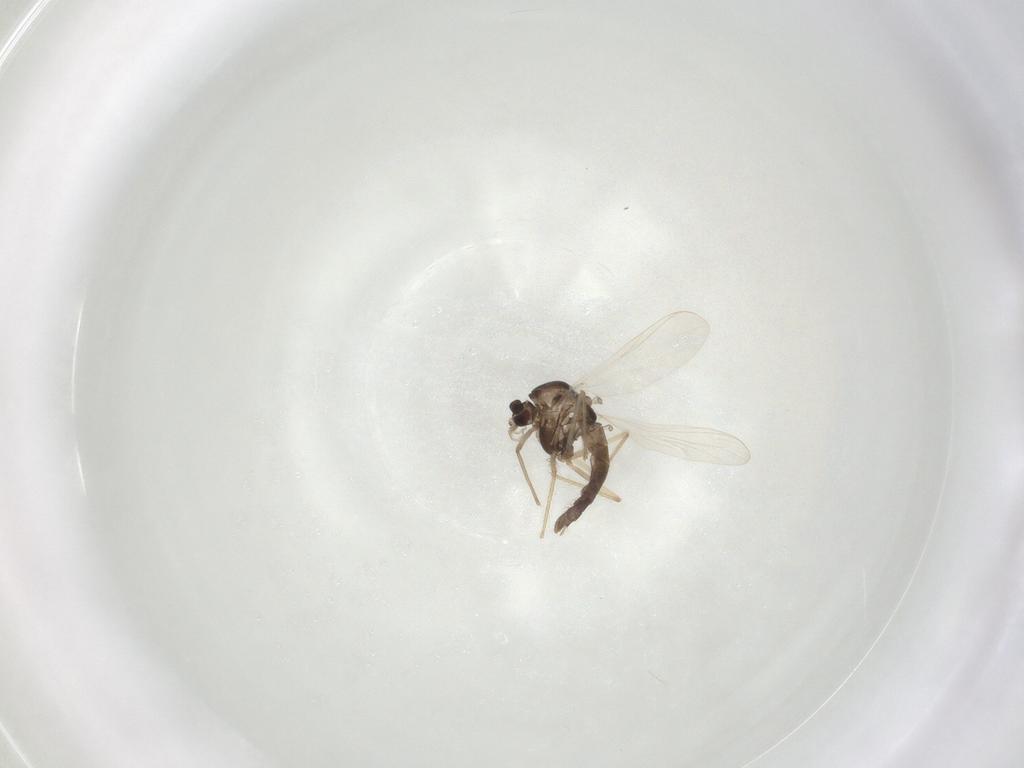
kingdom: Animalia
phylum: Arthropoda
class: Insecta
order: Diptera
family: Chironomidae
